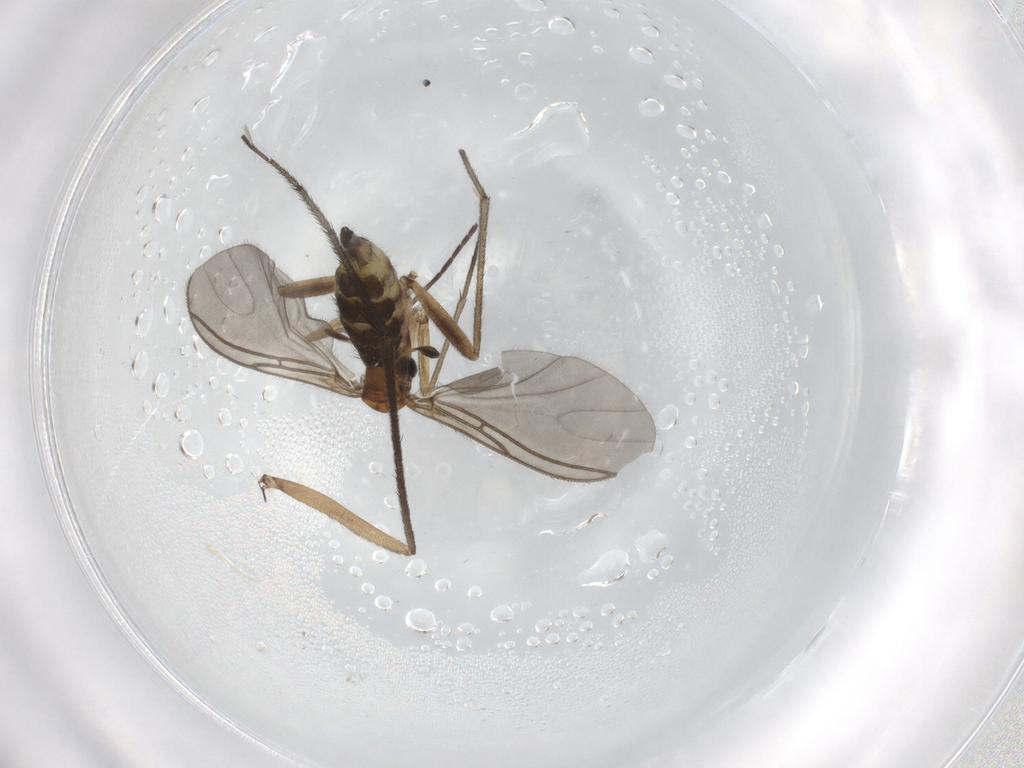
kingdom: Animalia
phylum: Arthropoda
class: Insecta
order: Diptera
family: Sciaridae
